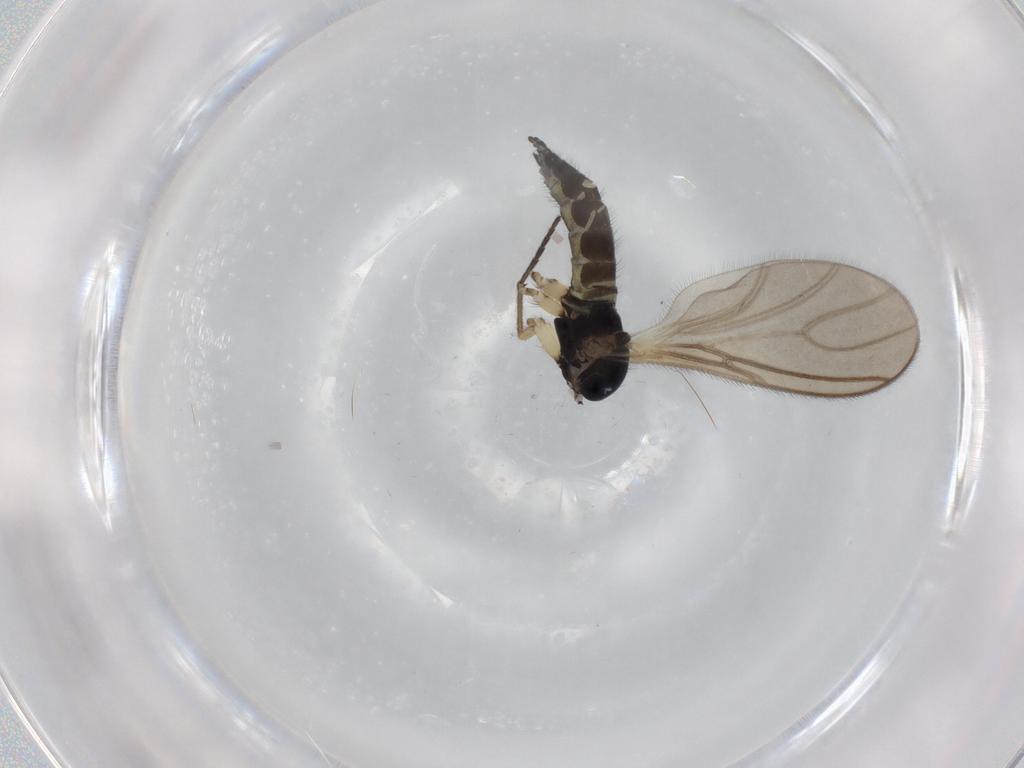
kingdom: Animalia
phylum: Arthropoda
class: Insecta
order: Diptera
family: Sciaridae
